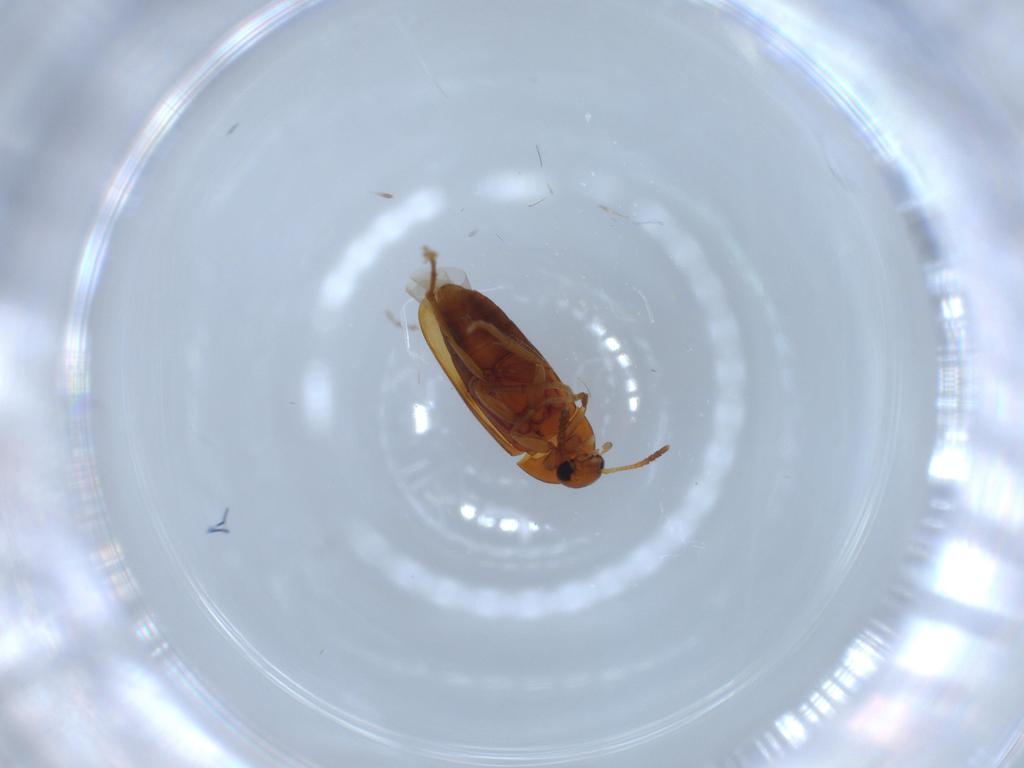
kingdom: Animalia
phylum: Arthropoda
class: Insecta
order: Coleoptera
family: Scraptiidae
